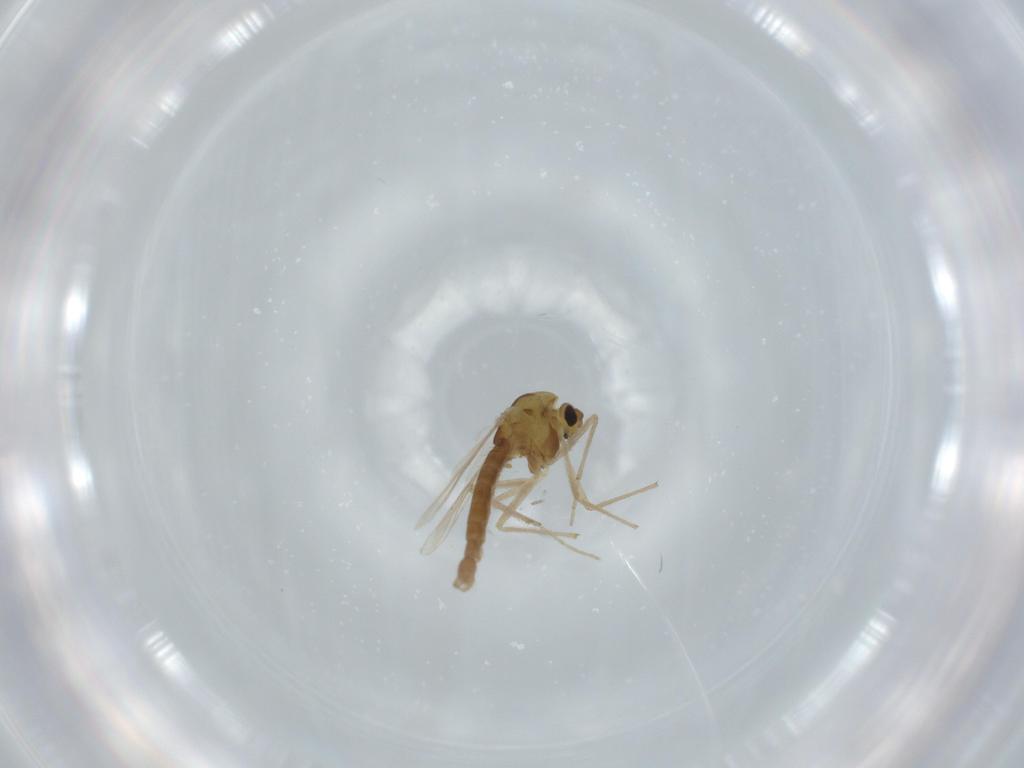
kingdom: Animalia
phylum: Arthropoda
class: Insecta
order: Diptera
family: Chironomidae
